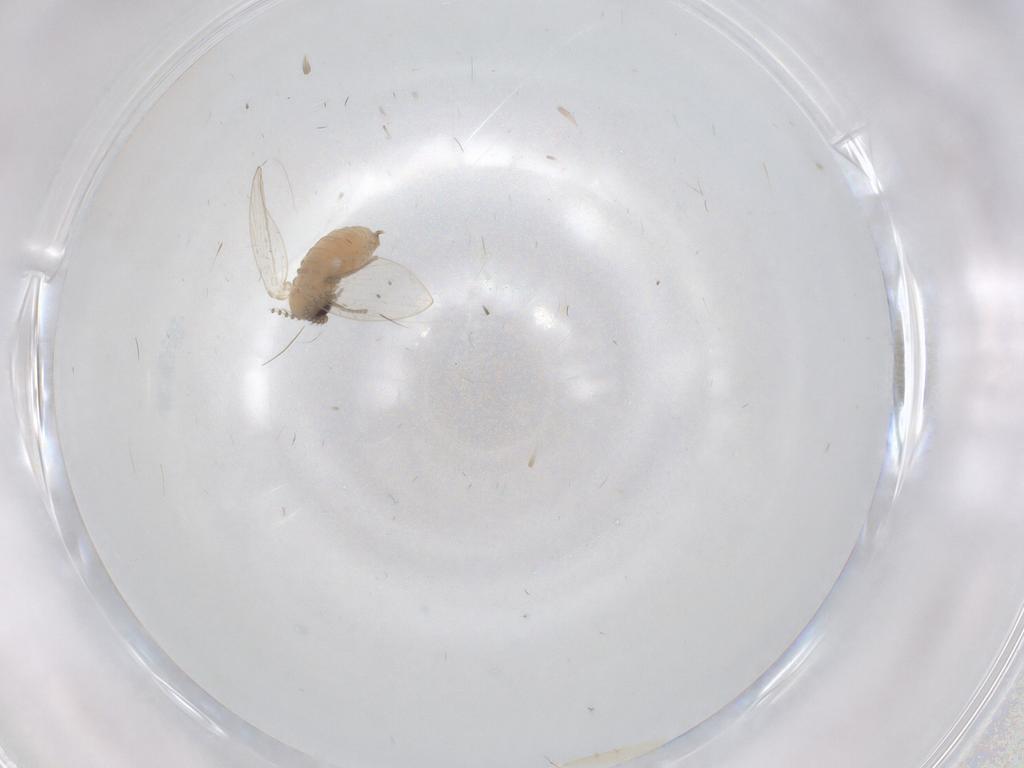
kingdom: Animalia
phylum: Arthropoda
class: Insecta
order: Diptera
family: Psychodidae
